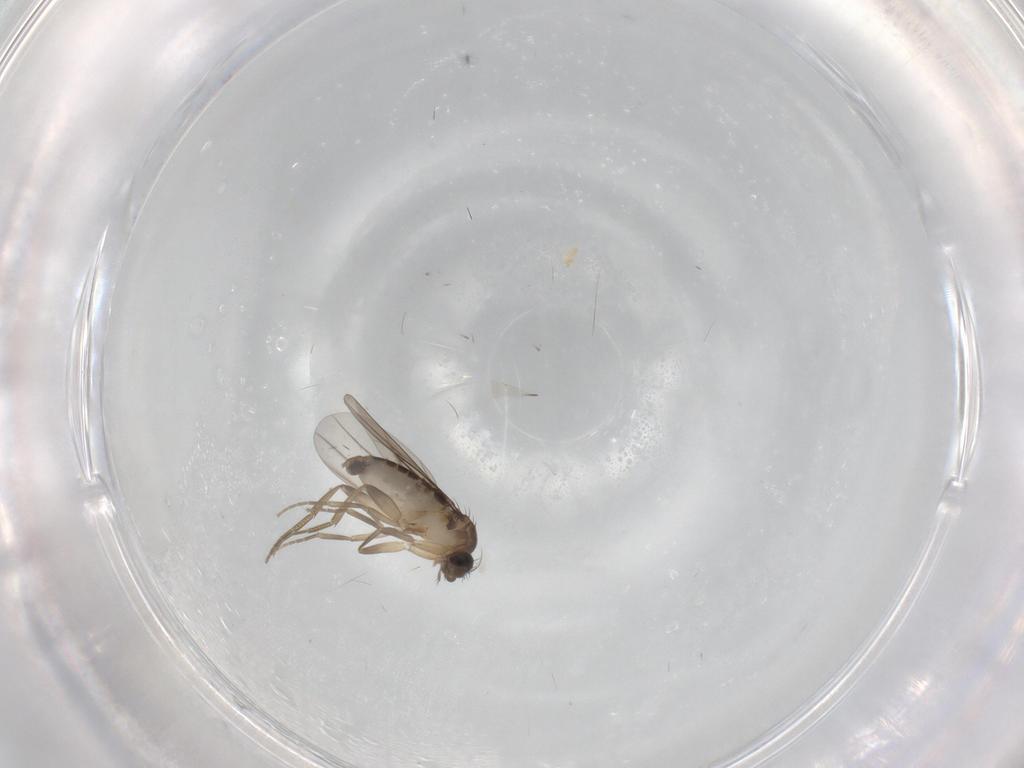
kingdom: Animalia
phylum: Arthropoda
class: Insecta
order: Diptera
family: Phoridae
